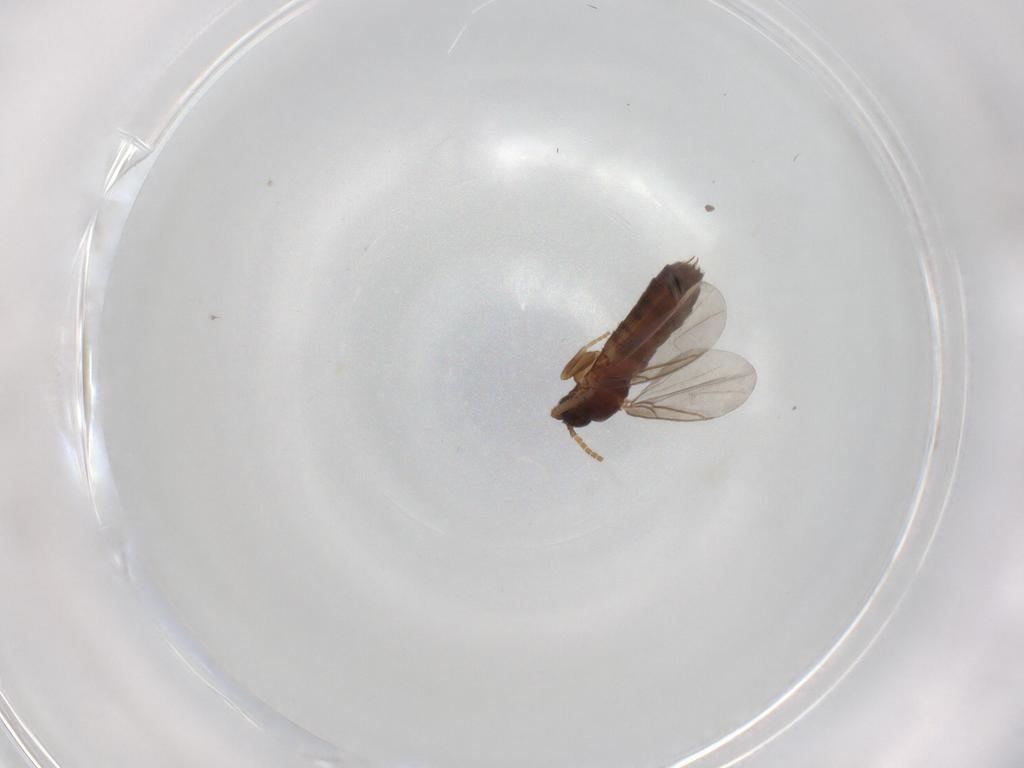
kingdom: Animalia
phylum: Arthropoda
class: Insecta
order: Diptera
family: Scatopsidae
